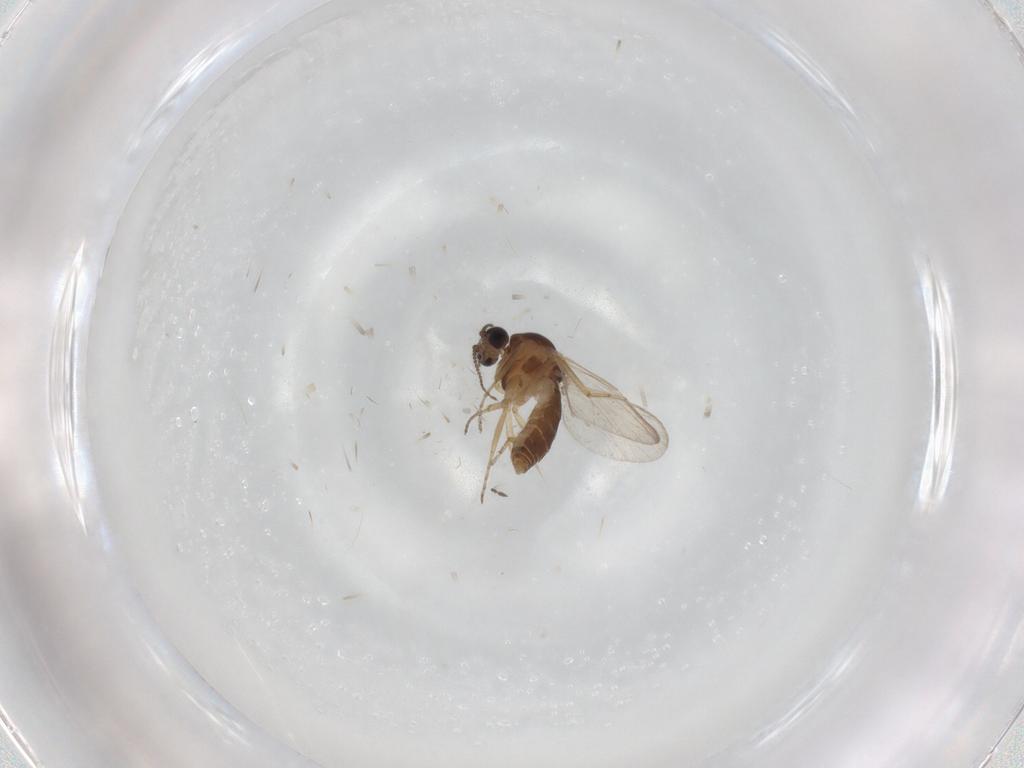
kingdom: Animalia
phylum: Arthropoda
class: Insecta
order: Diptera
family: Ceratopogonidae
